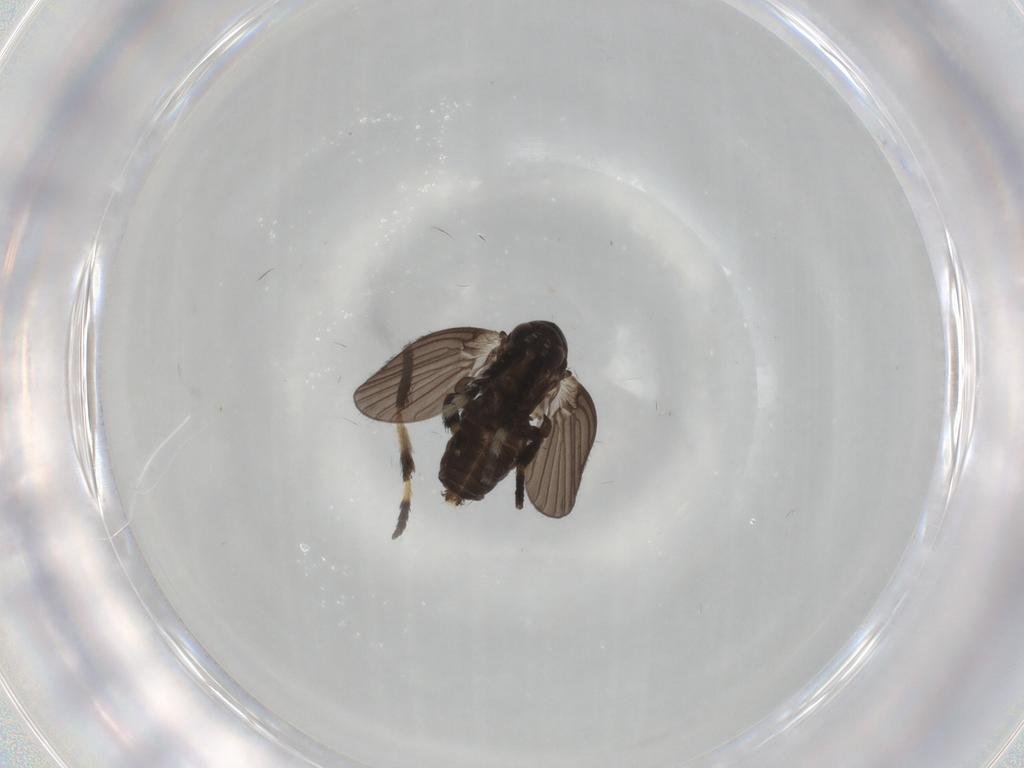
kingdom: Animalia
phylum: Arthropoda
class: Insecta
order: Diptera
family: Psychodidae
